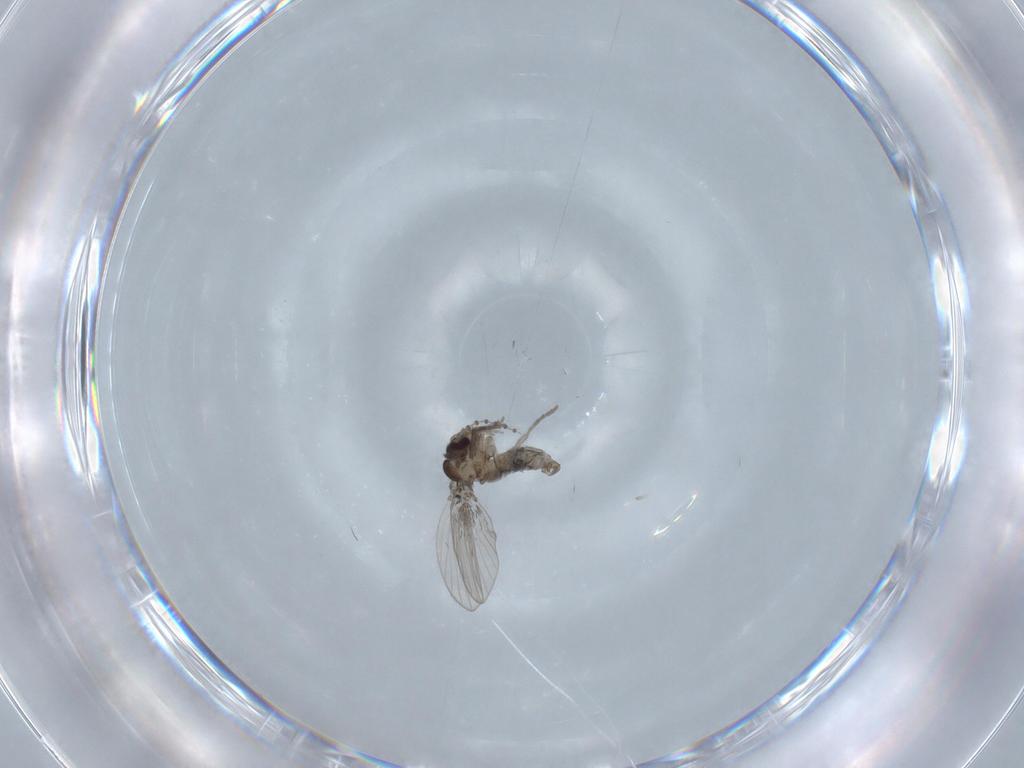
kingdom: Animalia
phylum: Arthropoda
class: Insecta
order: Diptera
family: Psychodidae
